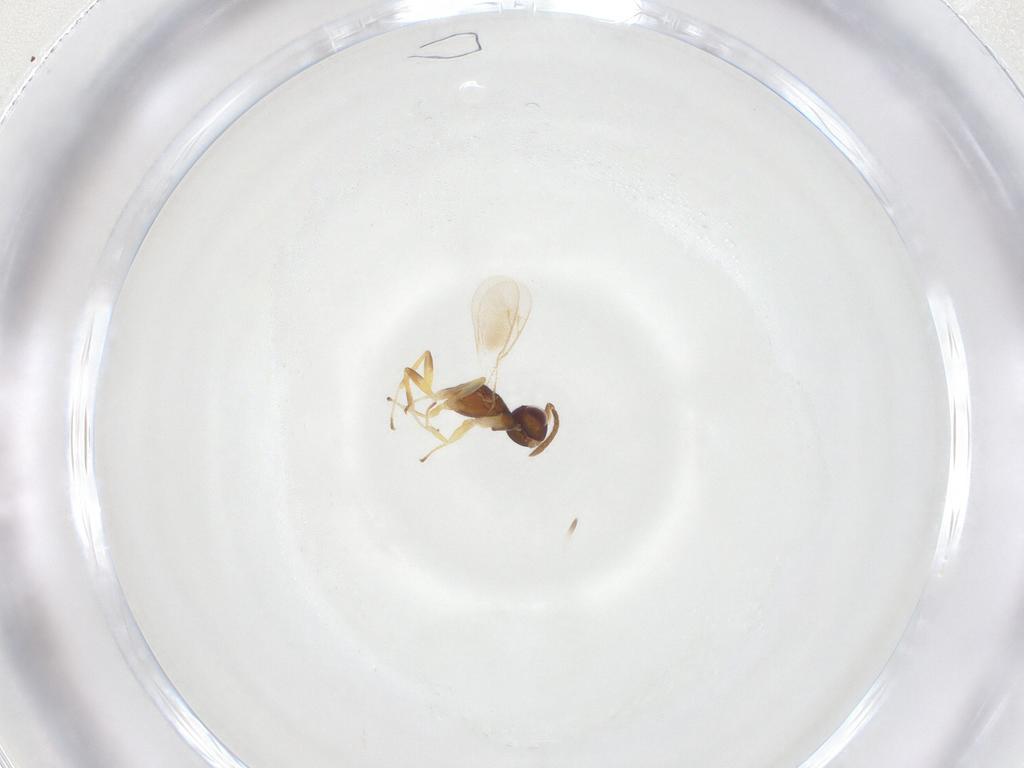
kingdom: Animalia
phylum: Arthropoda
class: Insecta
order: Hymenoptera
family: Eupelmidae
